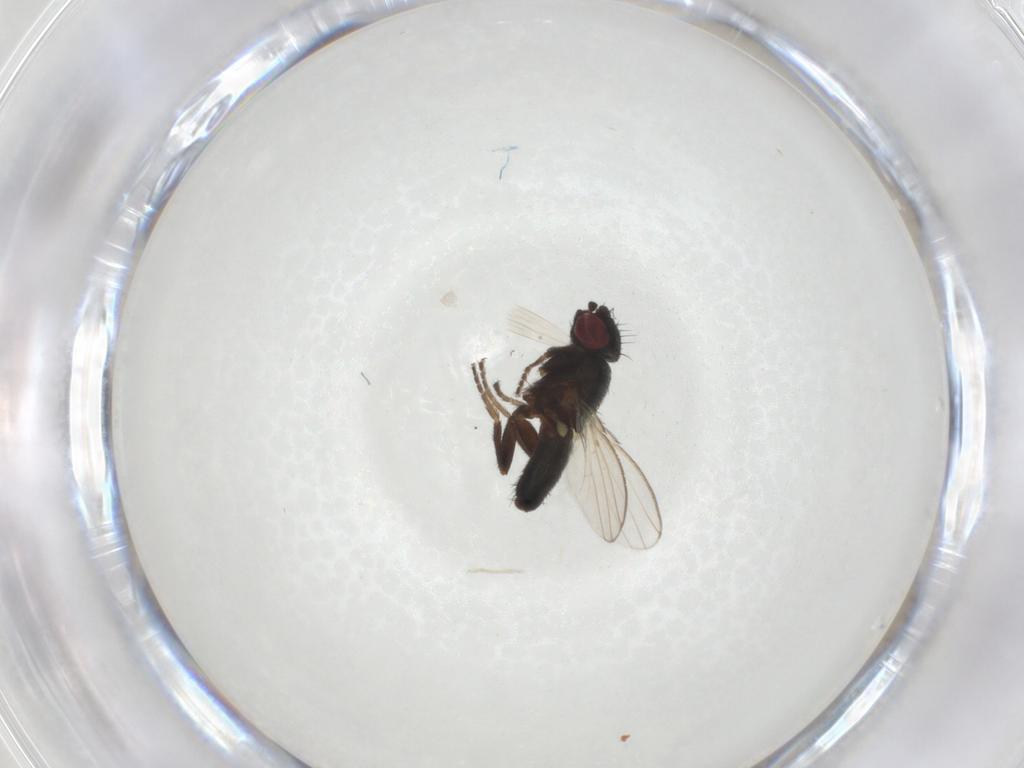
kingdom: Animalia
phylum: Arthropoda
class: Insecta
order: Diptera
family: Milichiidae
